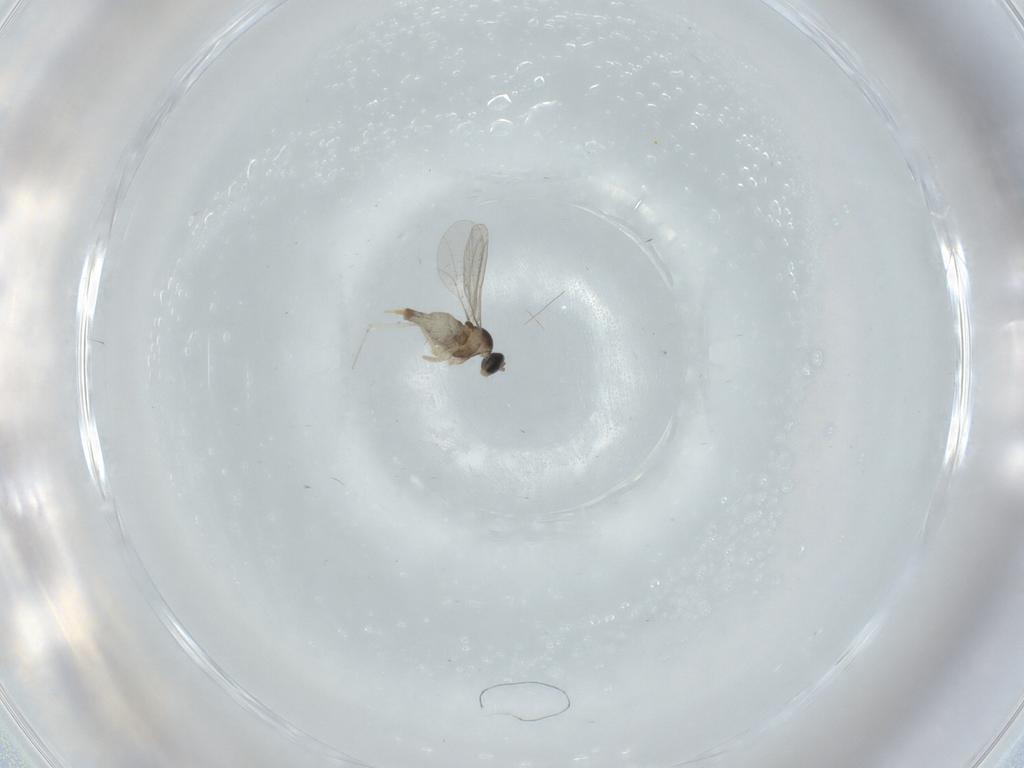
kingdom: Animalia
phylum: Arthropoda
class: Insecta
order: Diptera
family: Cecidomyiidae
